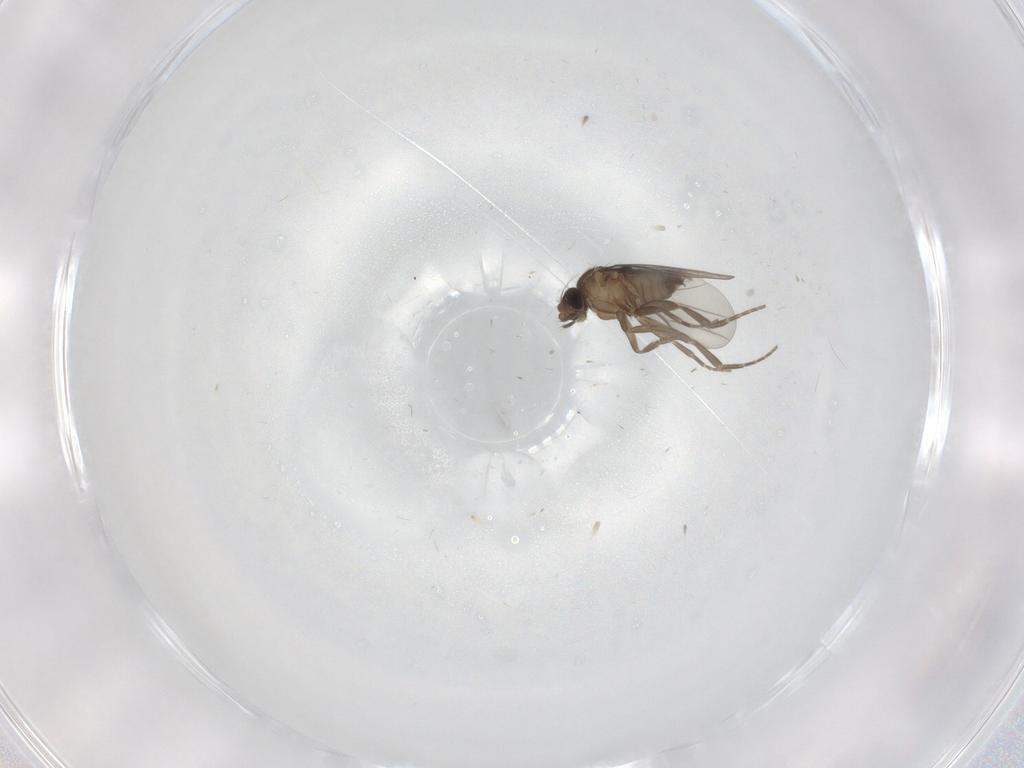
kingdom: Animalia
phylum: Arthropoda
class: Insecta
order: Diptera
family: Psychodidae
